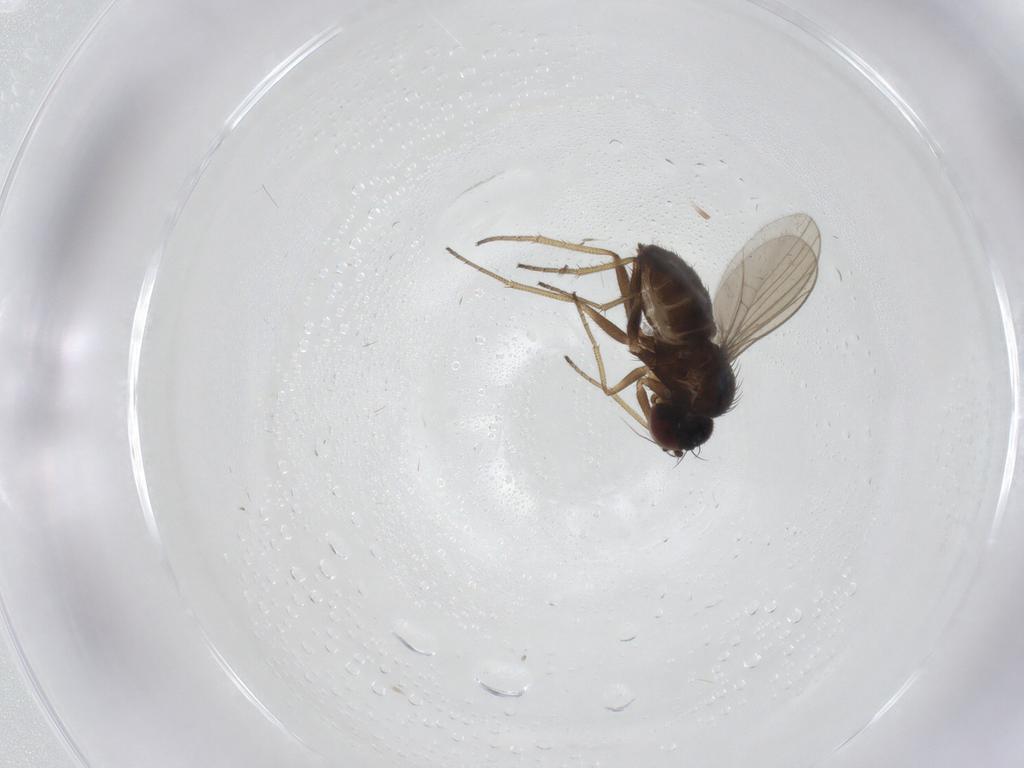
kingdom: Animalia
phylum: Arthropoda
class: Insecta
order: Diptera
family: Dolichopodidae
